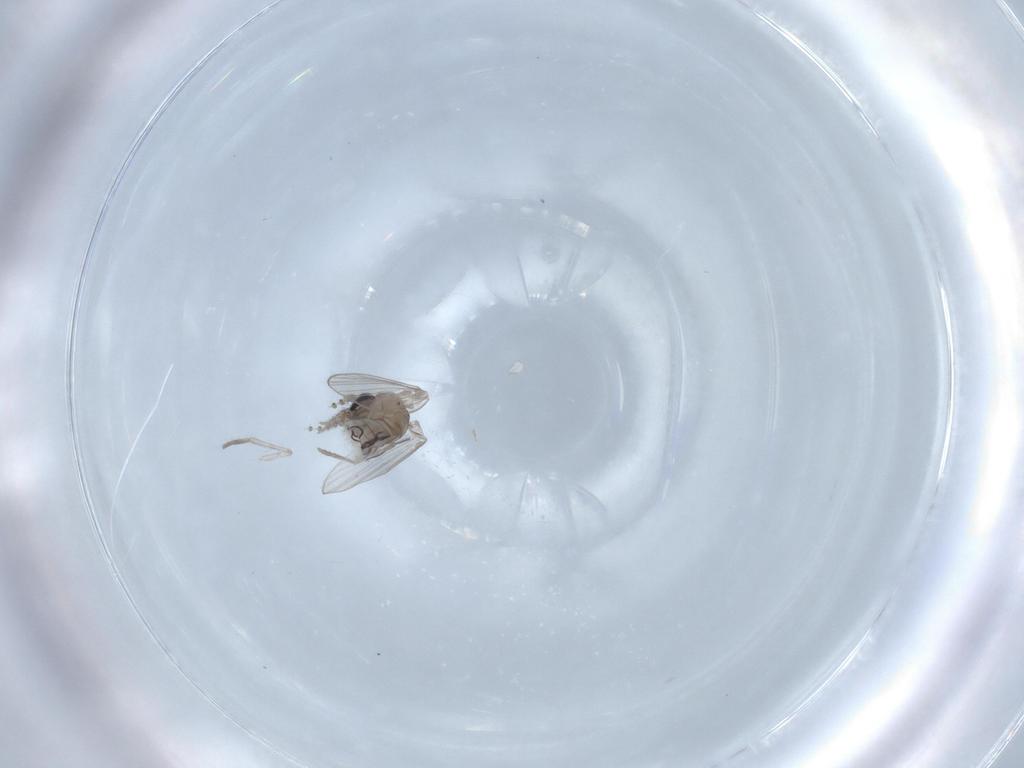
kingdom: Animalia
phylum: Arthropoda
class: Insecta
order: Diptera
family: Psychodidae
